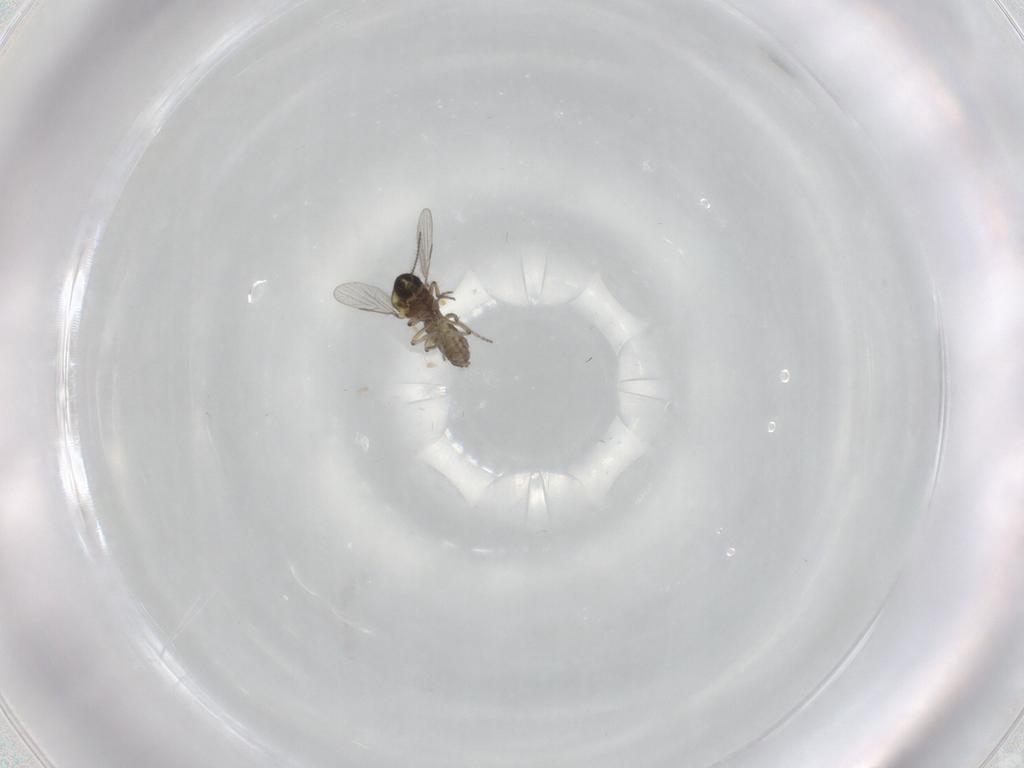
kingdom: Animalia
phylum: Arthropoda
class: Insecta
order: Diptera
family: Ceratopogonidae
